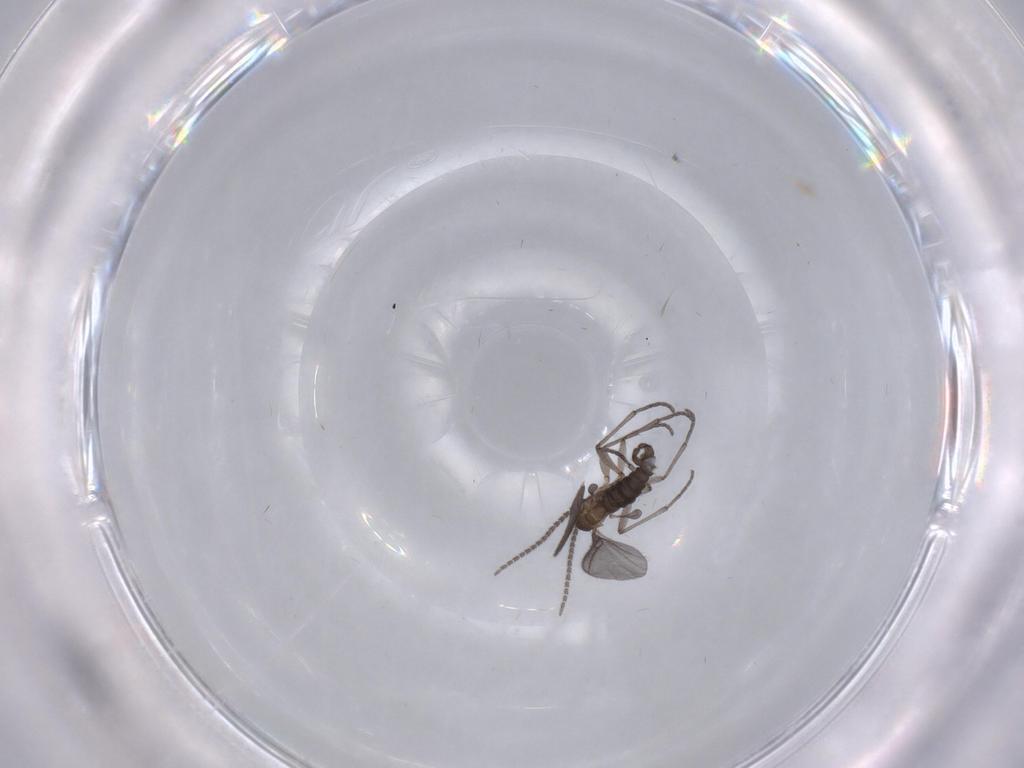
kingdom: Animalia
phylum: Arthropoda
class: Insecta
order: Diptera
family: Sciaridae
